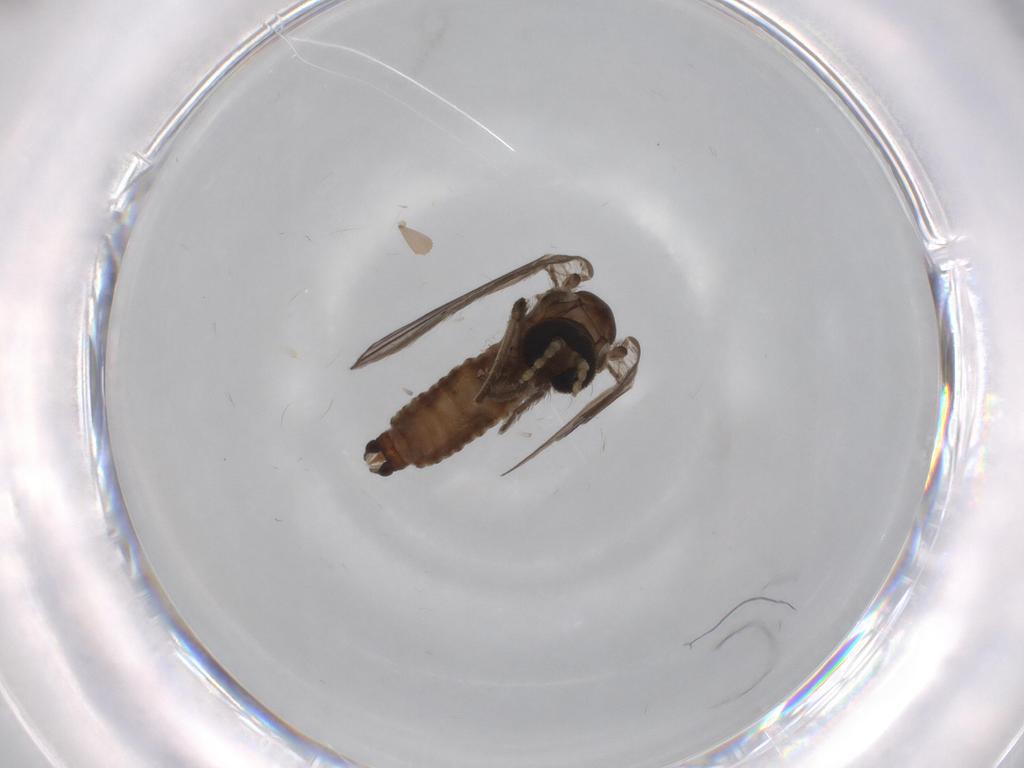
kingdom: Animalia
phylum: Arthropoda
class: Insecta
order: Diptera
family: Dolichopodidae
